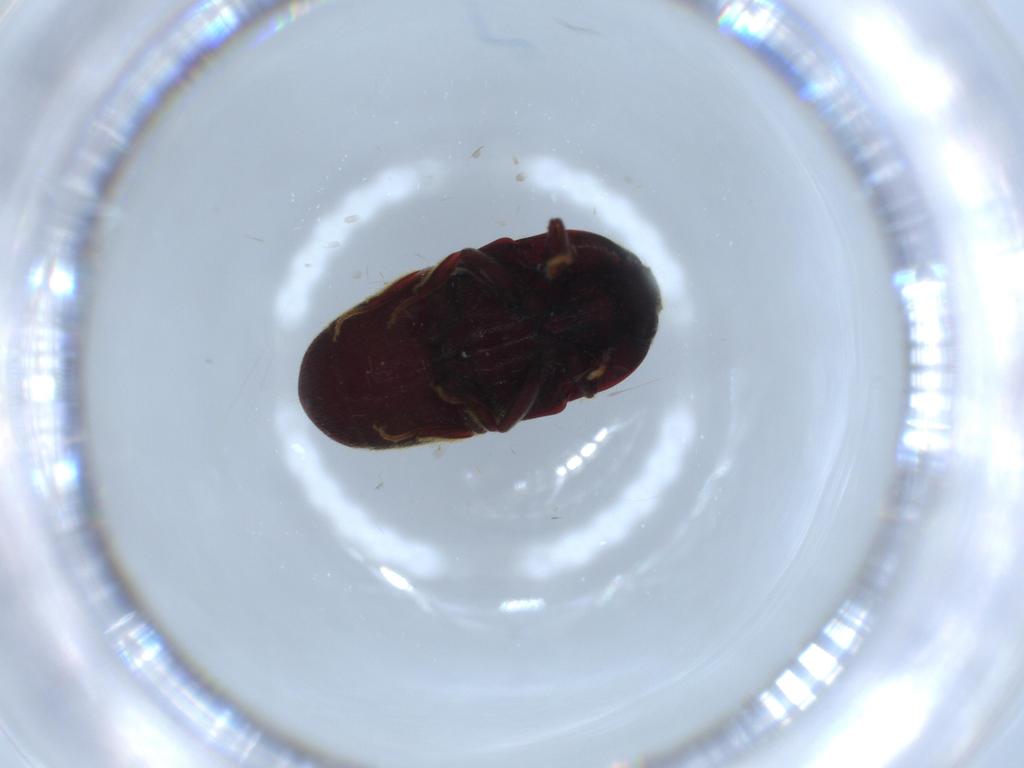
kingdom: Animalia
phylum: Arthropoda
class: Insecta
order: Coleoptera
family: Throscidae
